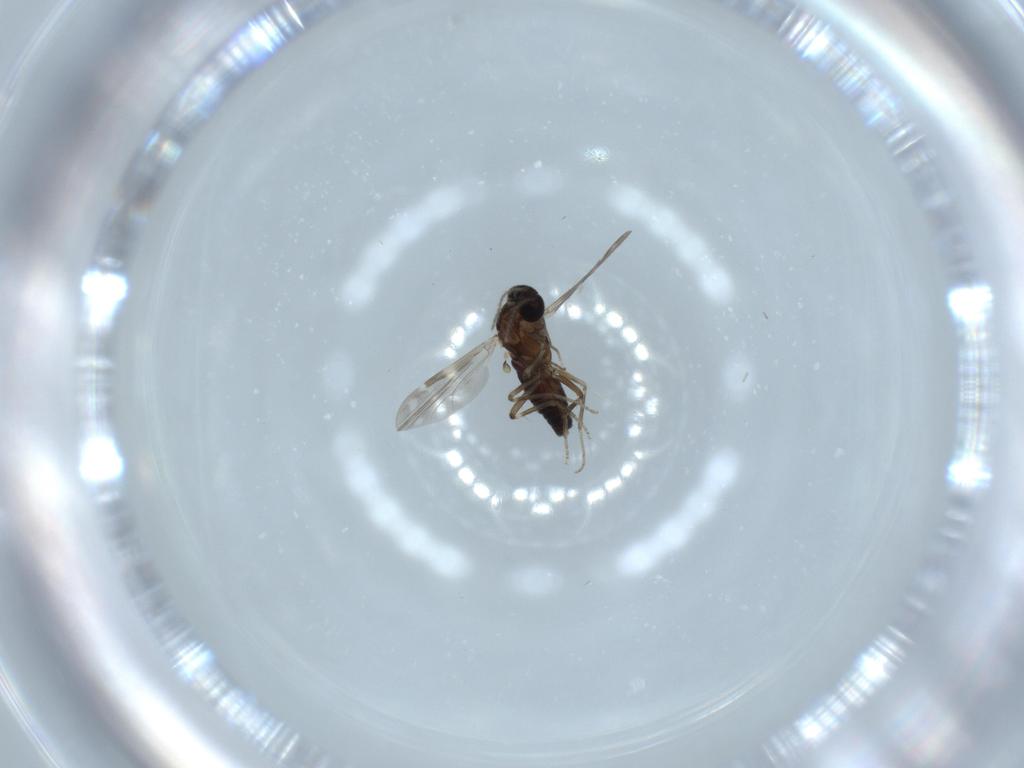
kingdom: Animalia
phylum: Arthropoda
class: Insecta
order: Diptera
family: Ceratopogonidae
